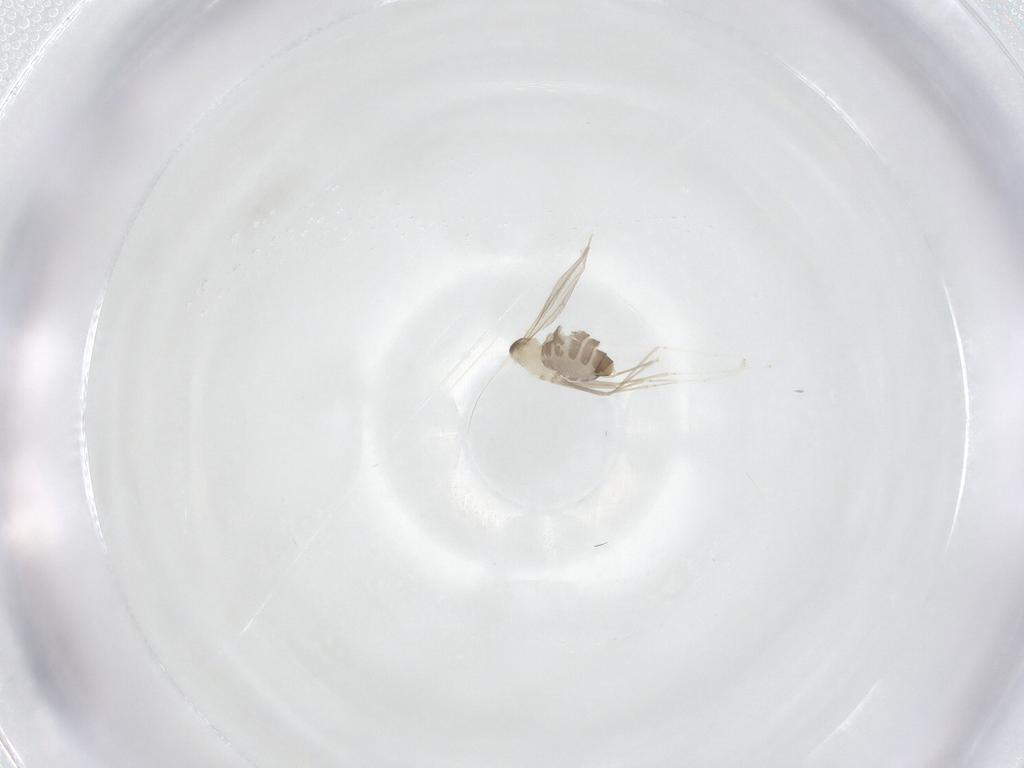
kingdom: Animalia
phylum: Arthropoda
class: Insecta
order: Diptera
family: Cecidomyiidae
